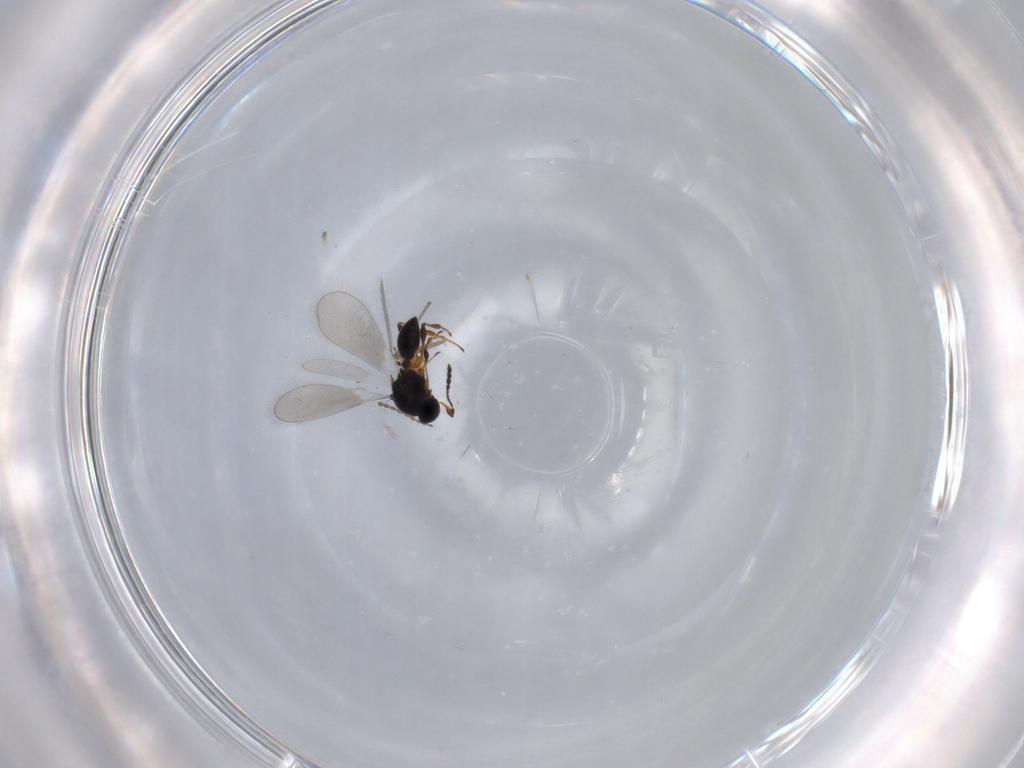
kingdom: Animalia
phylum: Arthropoda
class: Insecta
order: Hymenoptera
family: Platygastridae
